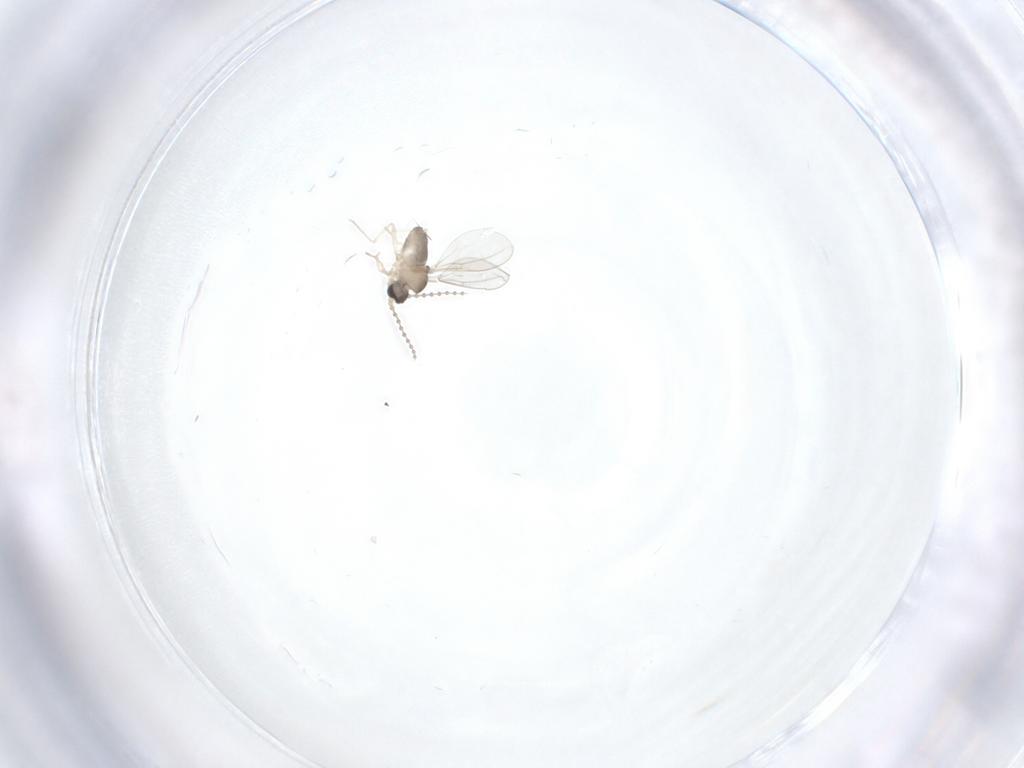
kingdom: Animalia
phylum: Arthropoda
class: Insecta
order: Diptera
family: Cecidomyiidae
